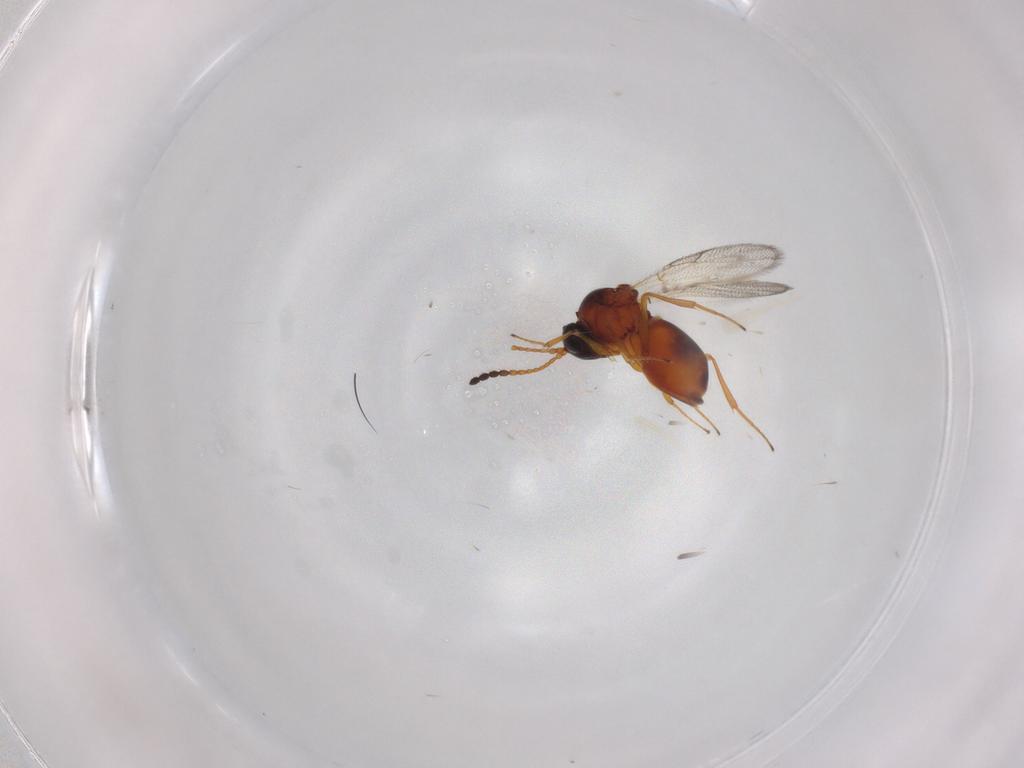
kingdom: Animalia
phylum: Arthropoda
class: Insecta
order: Hymenoptera
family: Figitidae
